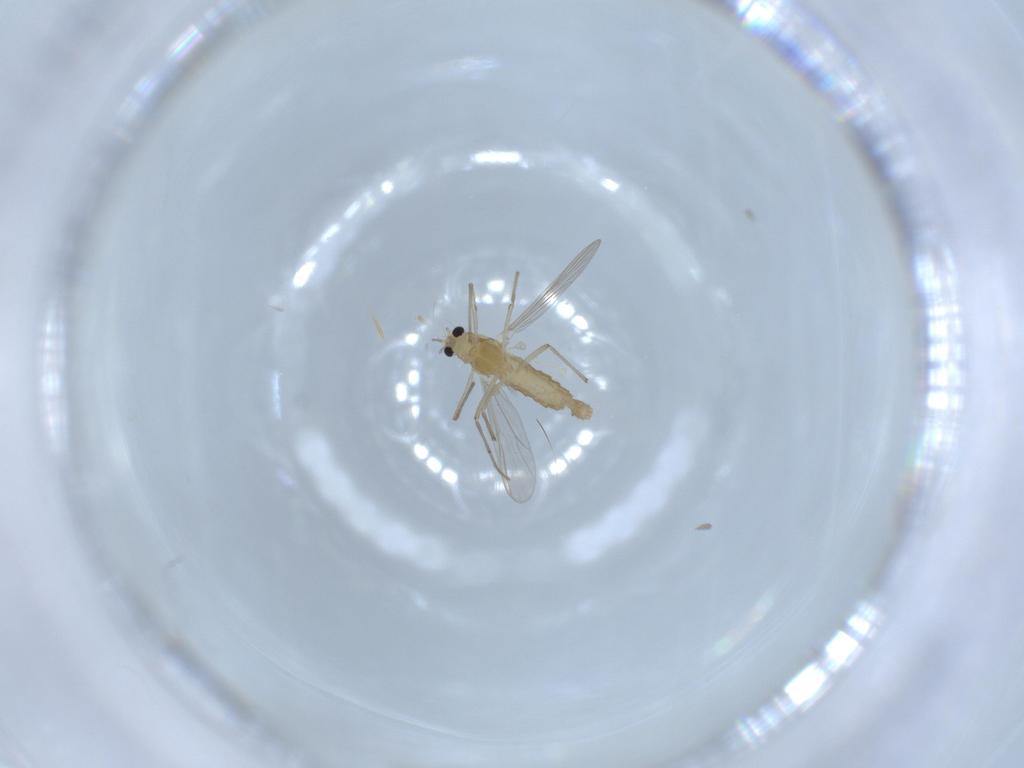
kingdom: Animalia
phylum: Arthropoda
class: Insecta
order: Diptera
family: Chironomidae
